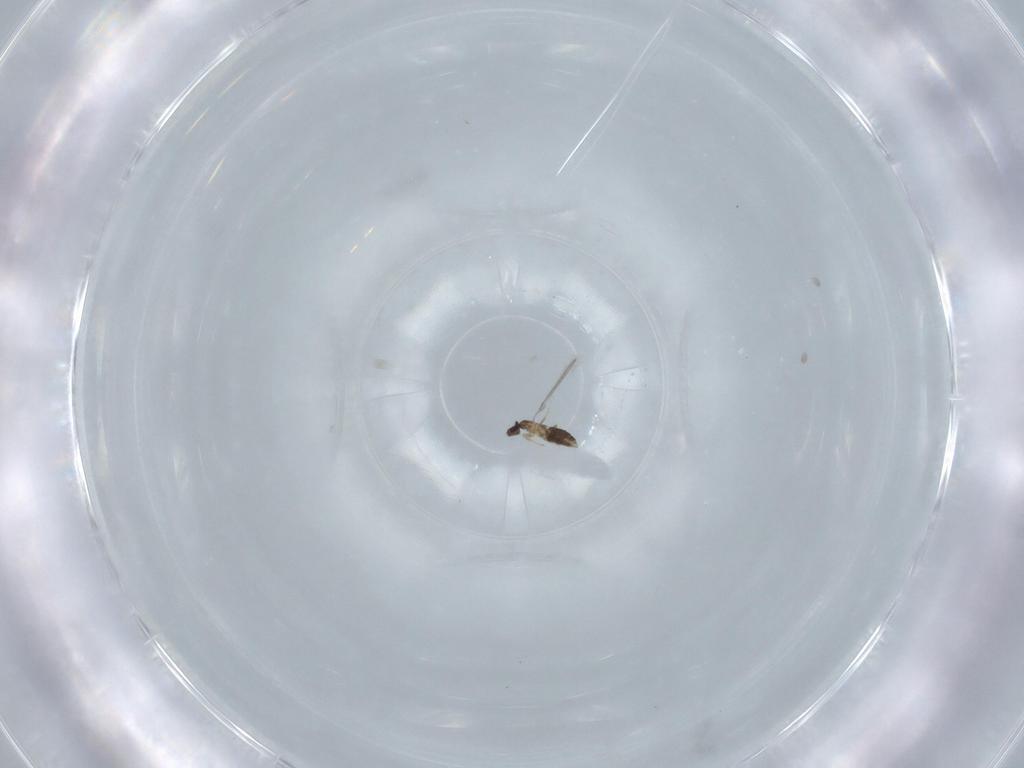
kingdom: Animalia
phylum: Arthropoda
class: Insecta
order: Hymenoptera
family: Mymaridae
